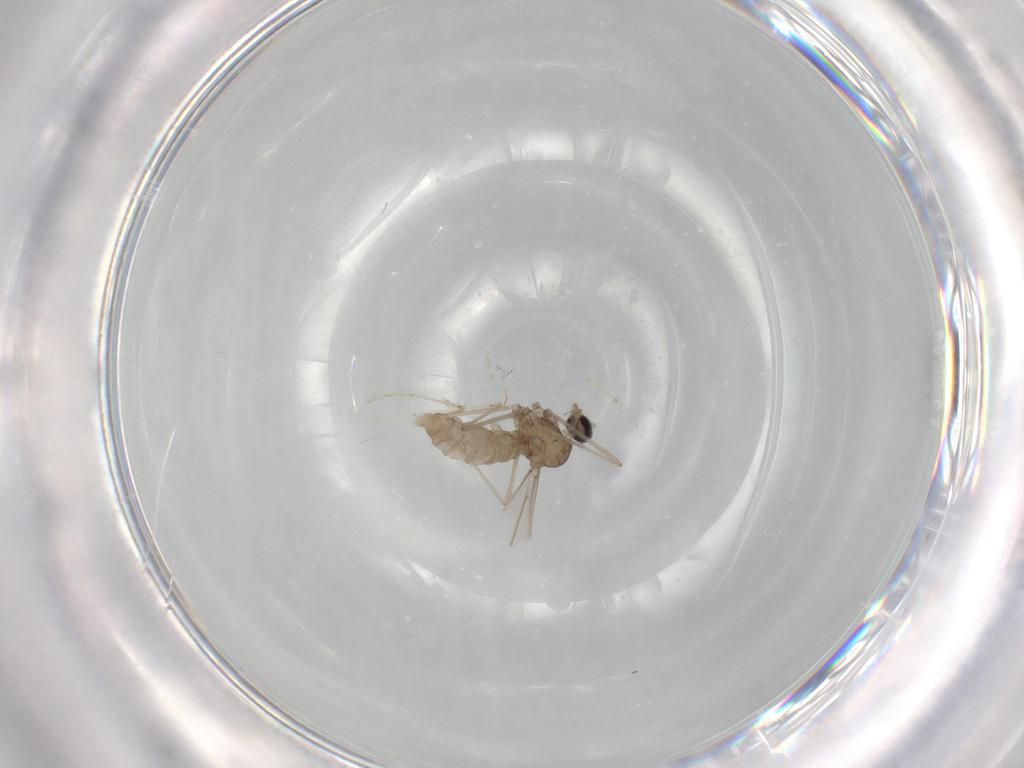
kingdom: Animalia
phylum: Arthropoda
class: Insecta
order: Diptera
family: Cecidomyiidae
